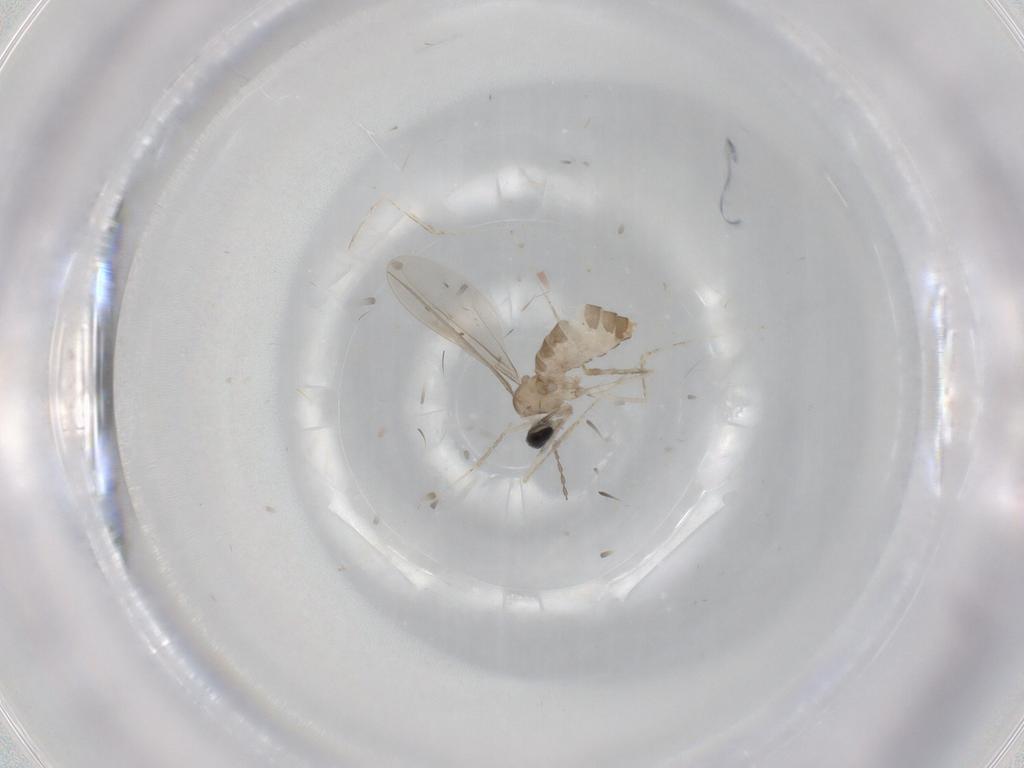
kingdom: Animalia
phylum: Arthropoda
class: Insecta
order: Diptera
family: Cecidomyiidae
